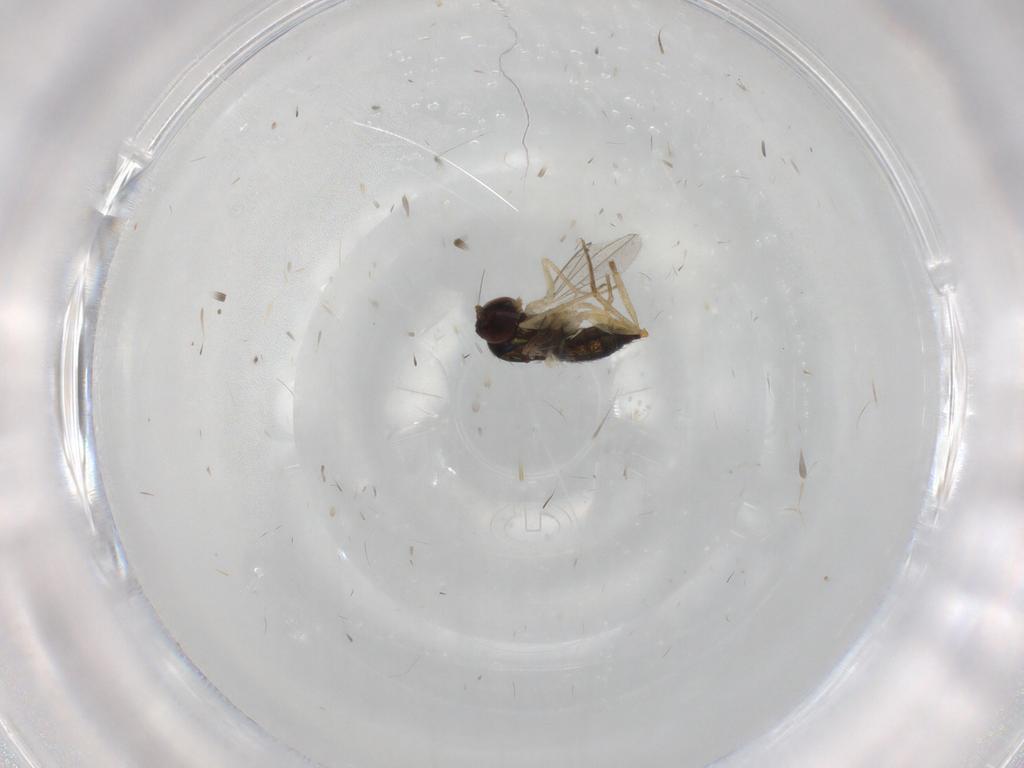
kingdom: Animalia
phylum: Arthropoda
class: Insecta
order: Diptera
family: Dolichopodidae
